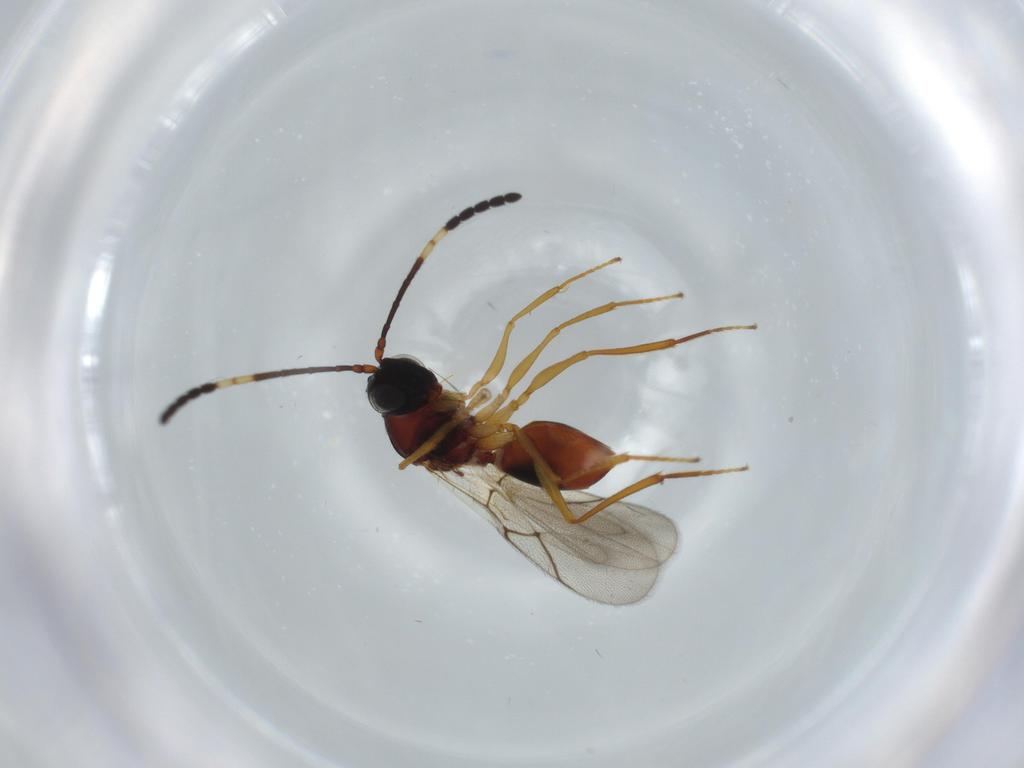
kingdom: Animalia
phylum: Arthropoda
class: Insecta
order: Hymenoptera
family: Figitidae
